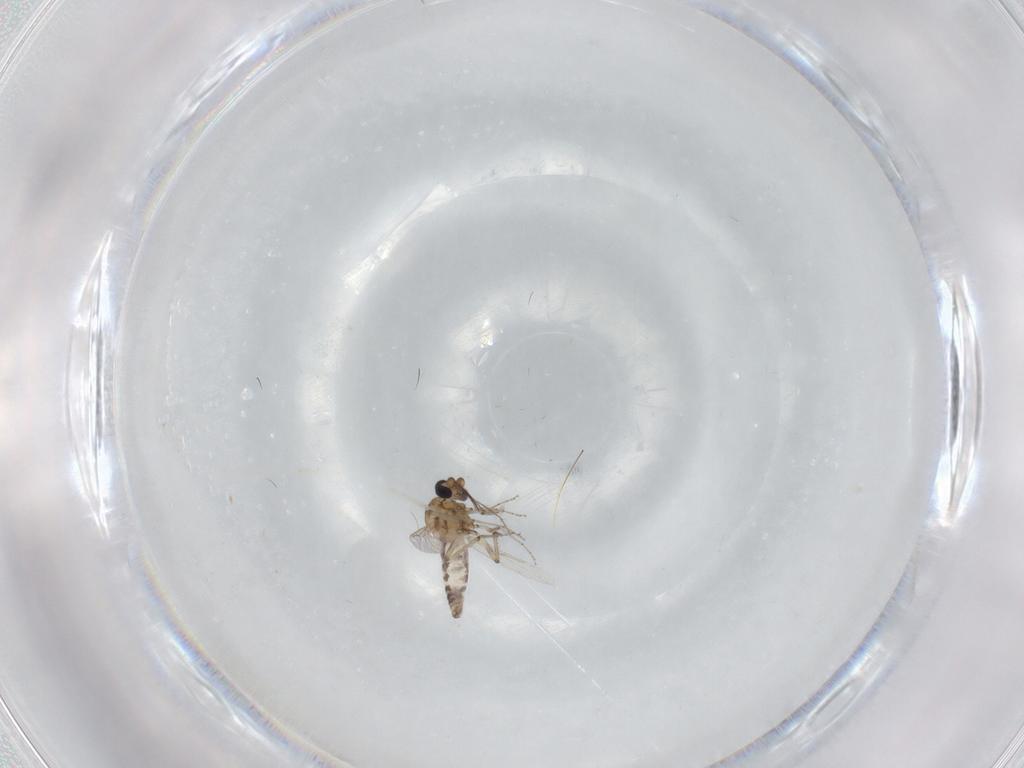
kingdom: Animalia
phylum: Arthropoda
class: Insecta
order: Diptera
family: Ceratopogonidae
